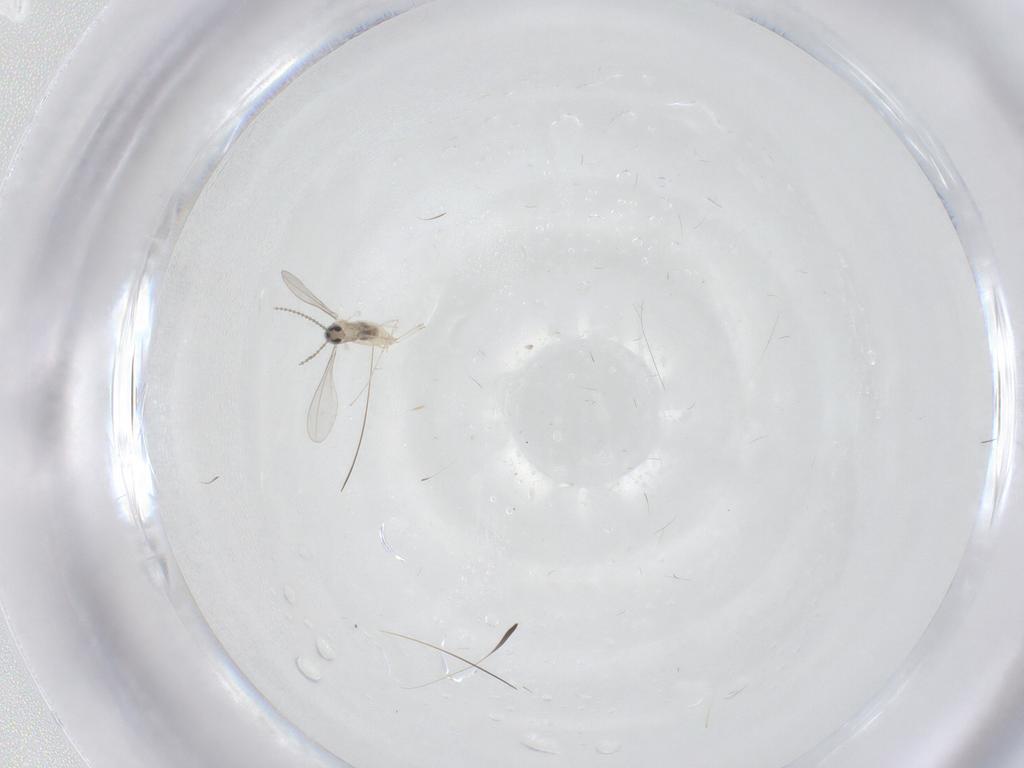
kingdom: Animalia
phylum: Arthropoda
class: Insecta
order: Diptera
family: Cecidomyiidae
